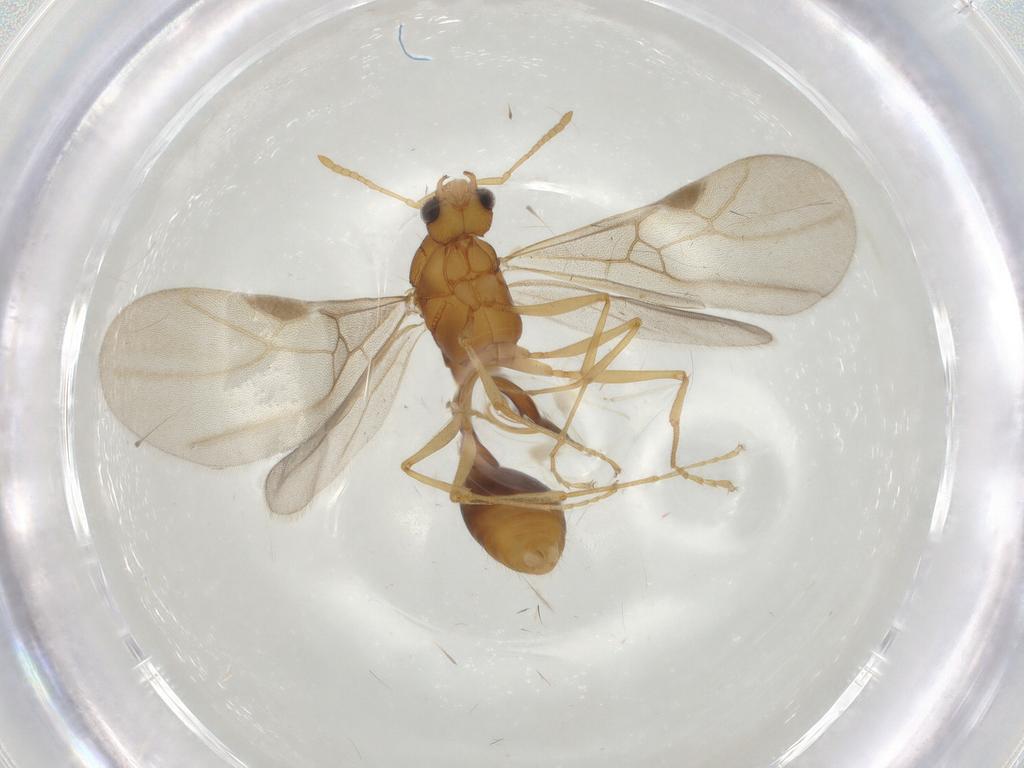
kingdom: Animalia
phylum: Arthropoda
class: Insecta
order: Hymenoptera
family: Formicidae
